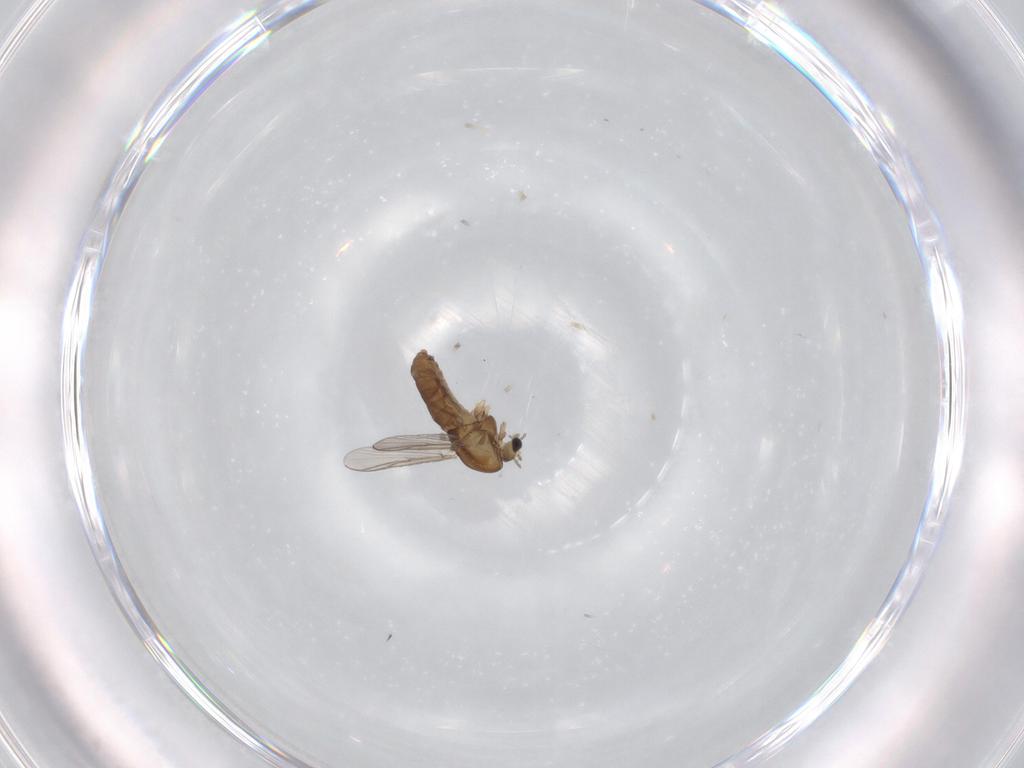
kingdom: Animalia
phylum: Arthropoda
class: Insecta
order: Diptera
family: Chironomidae
